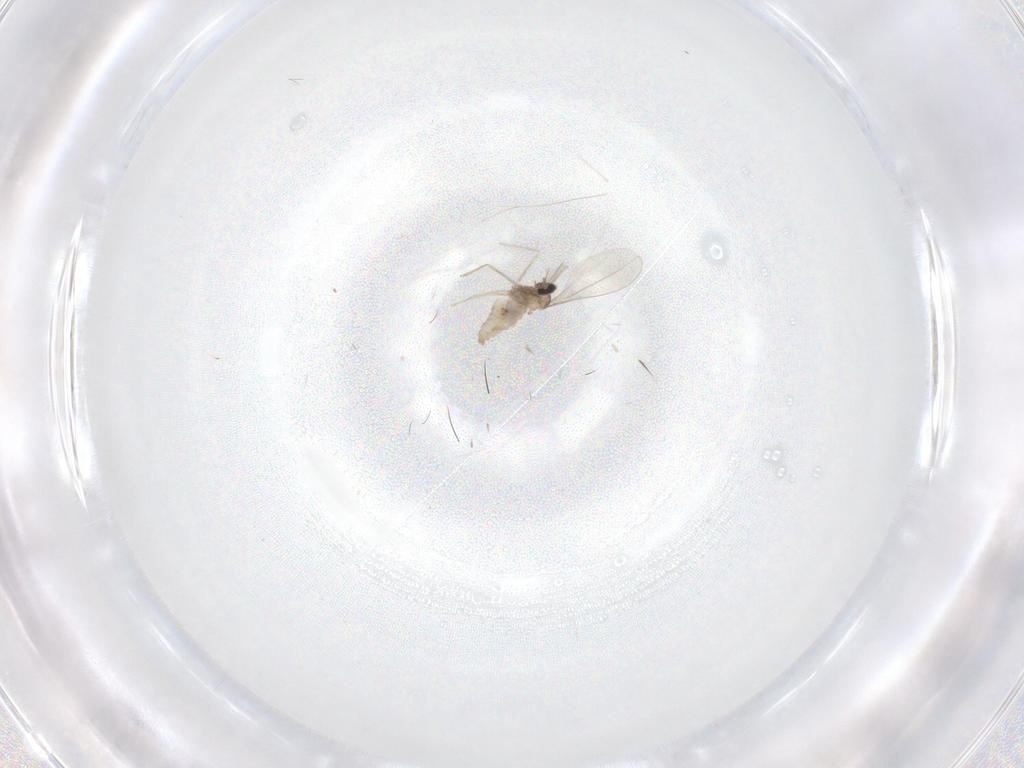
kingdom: Animalia
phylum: Arthropoda
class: Insecta
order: Diptera
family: Cecidomyiidae
